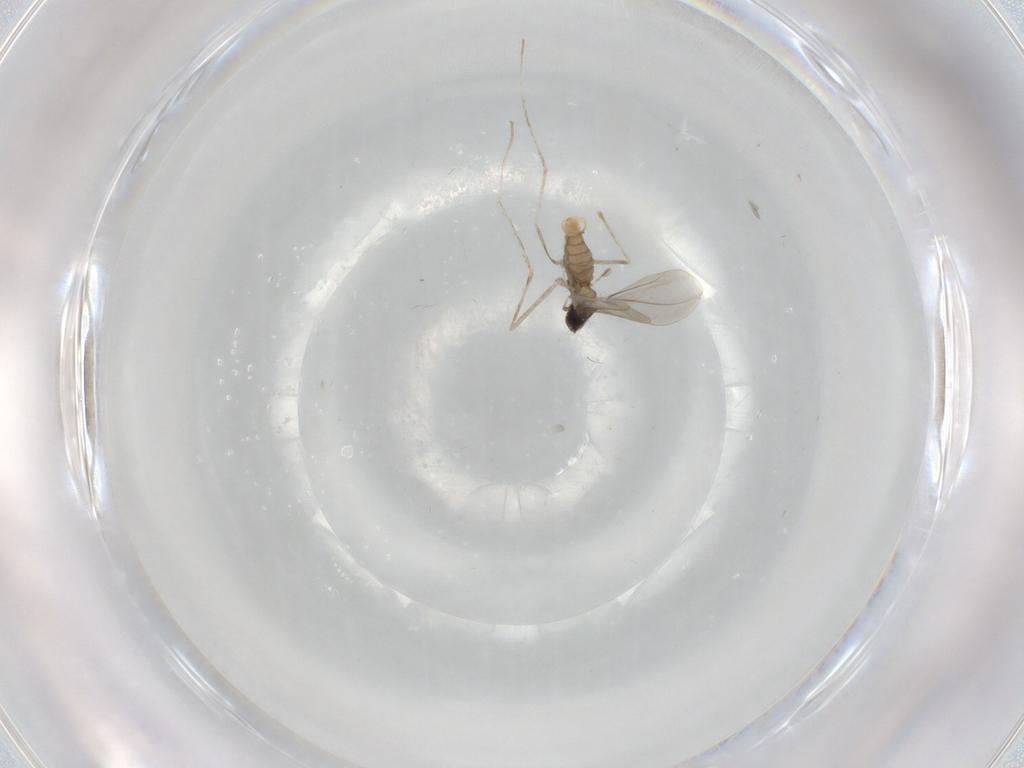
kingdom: Animalia
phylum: Arthropoda
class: Insecta
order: Diptera
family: Cecidomyiidae
